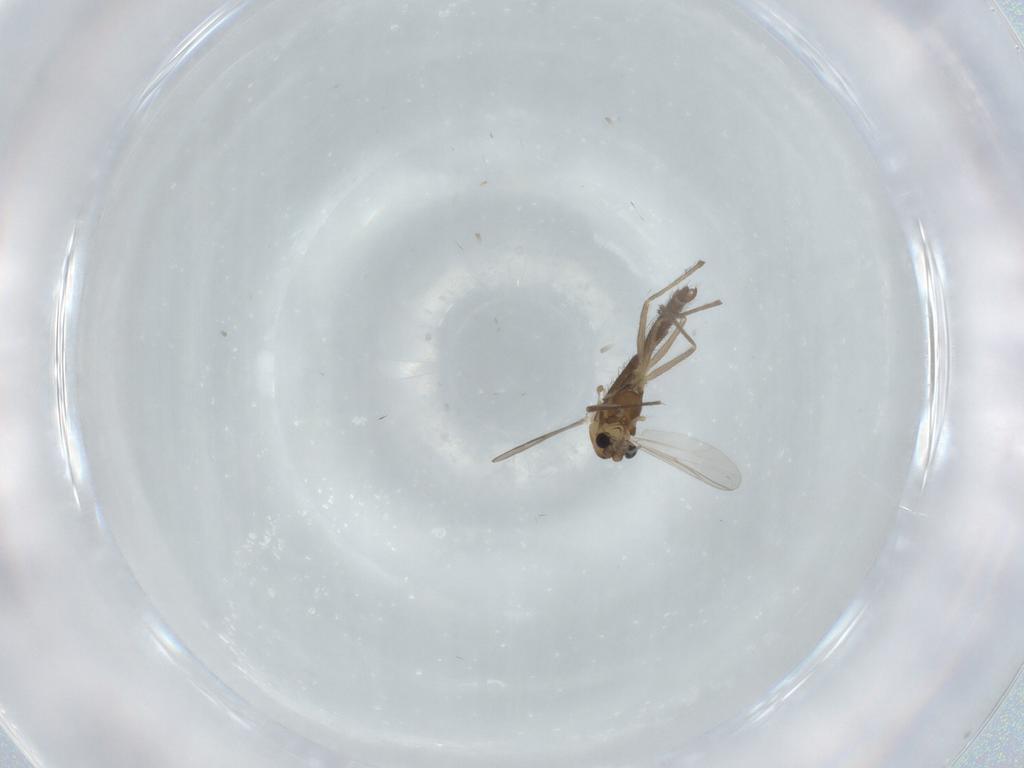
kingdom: Animalia
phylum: Arthropoda
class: Insecta
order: Diptera
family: Chironomidae
